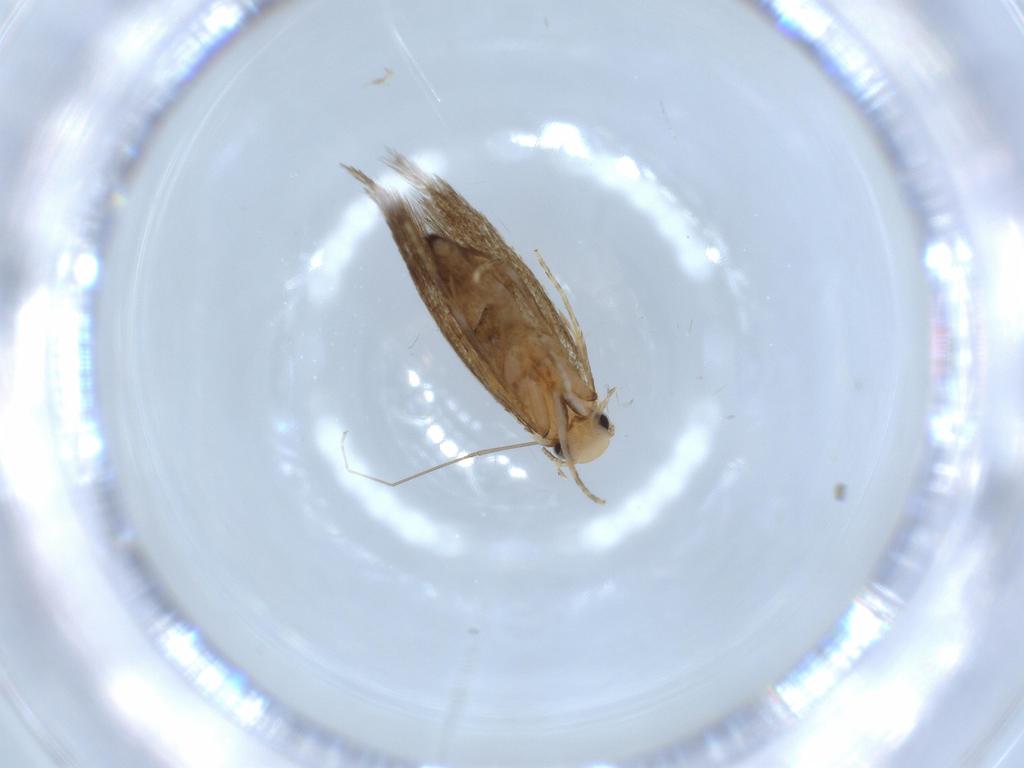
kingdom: Animalia
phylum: Arthropoda
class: Insecta
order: Lepidoptera
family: Tineidae
